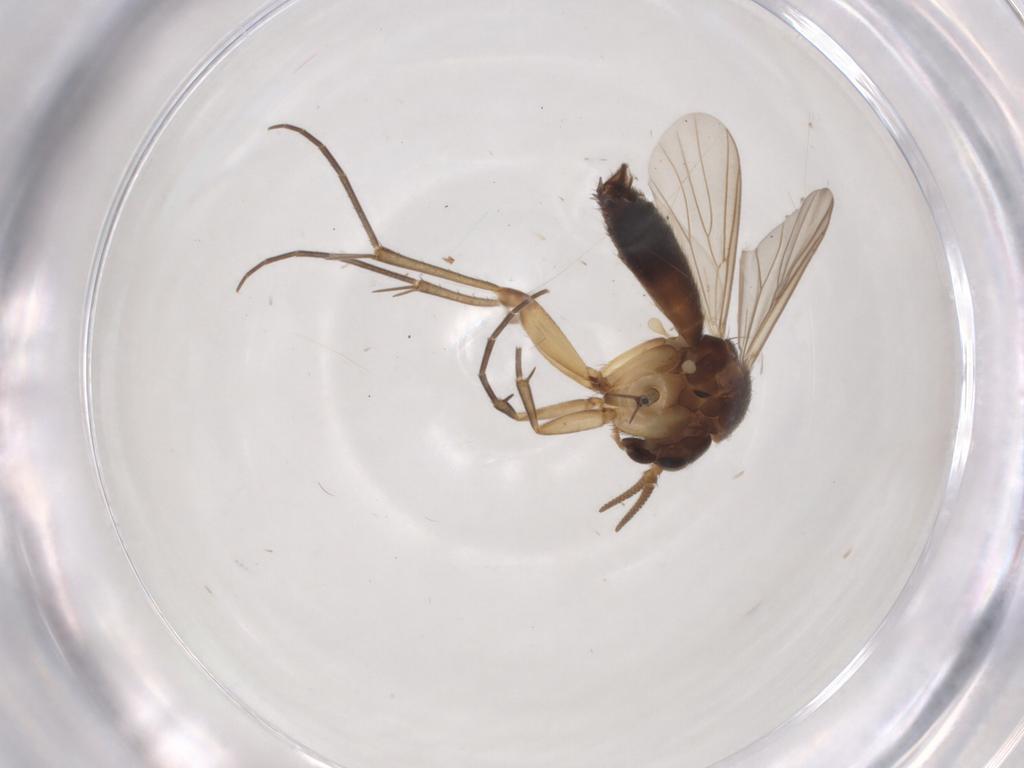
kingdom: Animalia
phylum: Arthropoda
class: Insecta
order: Diptera
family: Mycetophilidae
